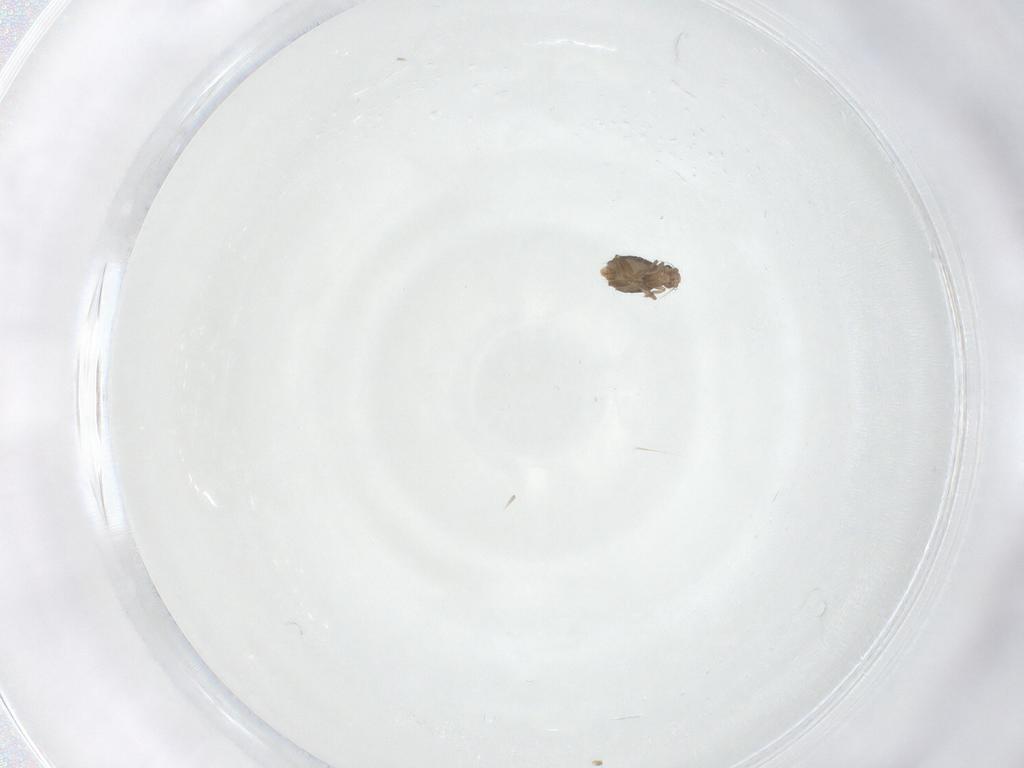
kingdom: Animalia
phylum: Arthropoda
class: Insecta
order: Diptera
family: Phoridae
